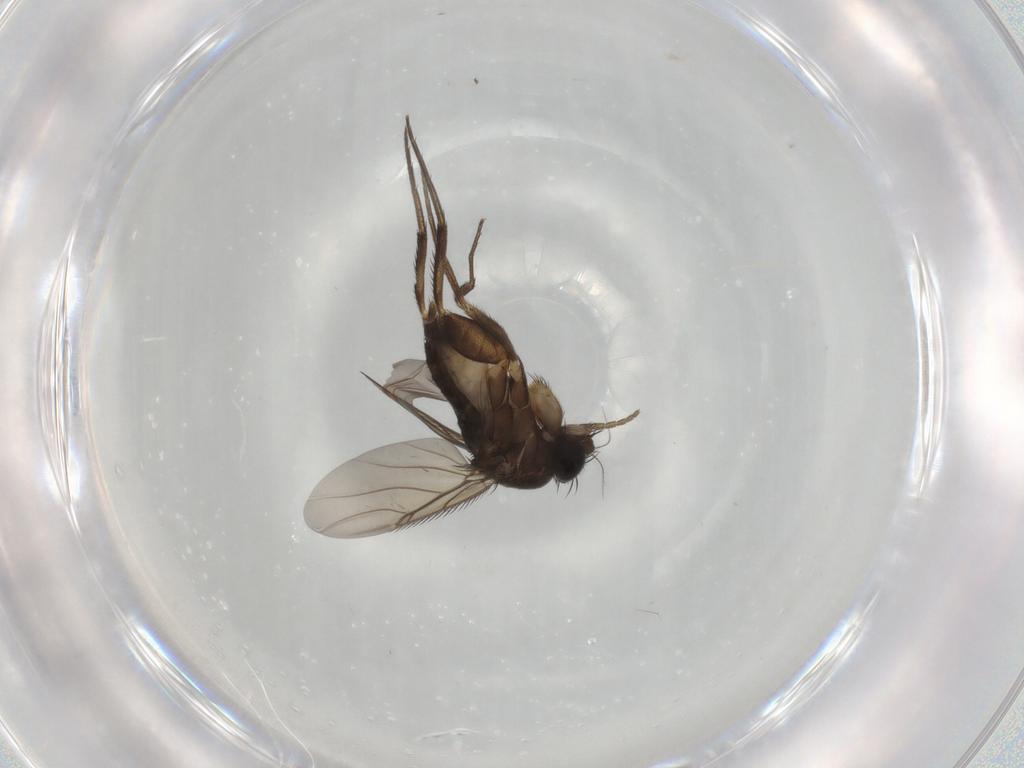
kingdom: Animalia
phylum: Arthropoda
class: Insecta
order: Diptera
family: Phoridae
